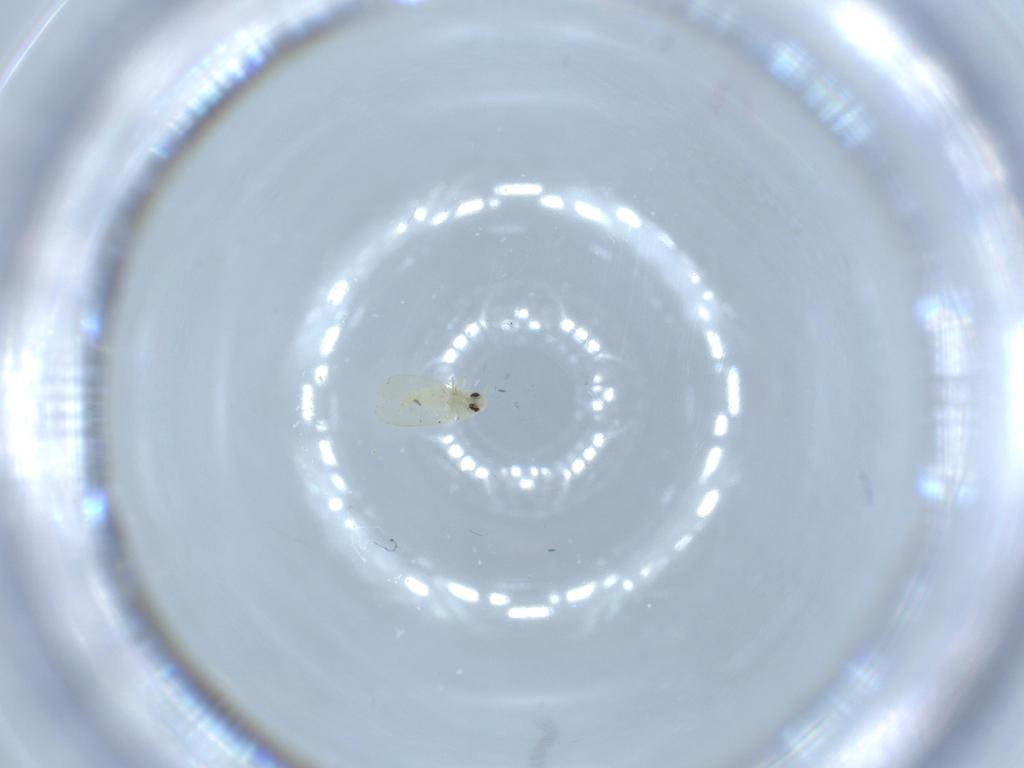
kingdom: Animalia
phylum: Arthropoda
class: Insecta
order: Hemiptera
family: Aleyrodidae
